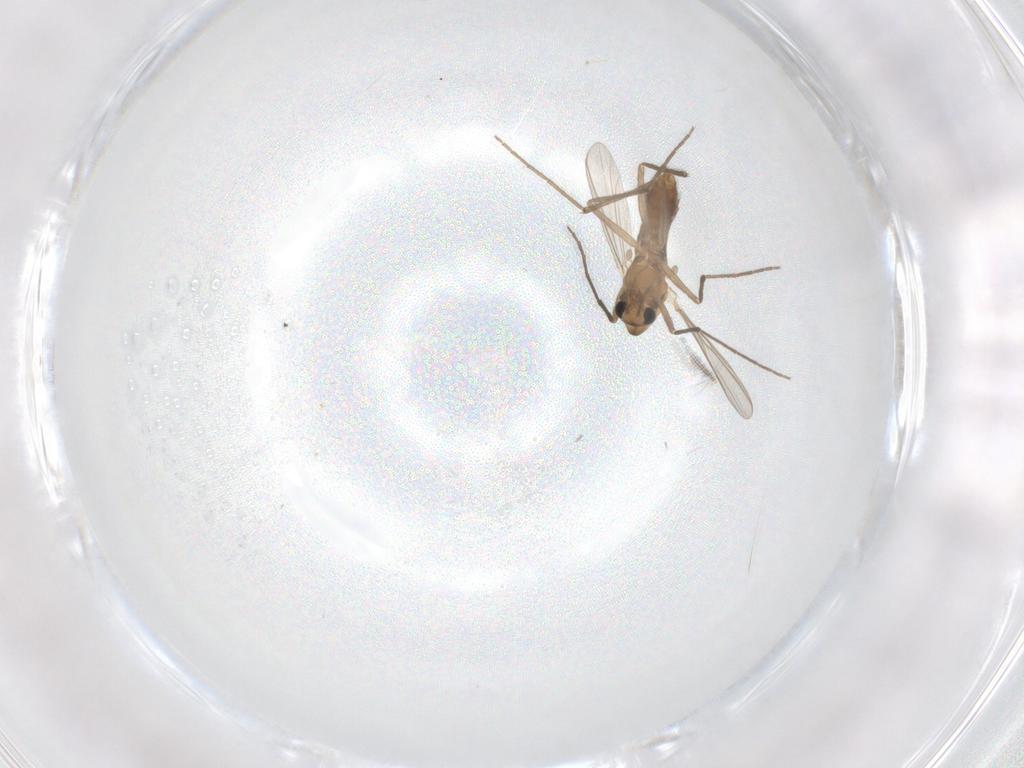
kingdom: Animalia
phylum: Arthropoda
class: Insecta
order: Diptera
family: Chironomidae
